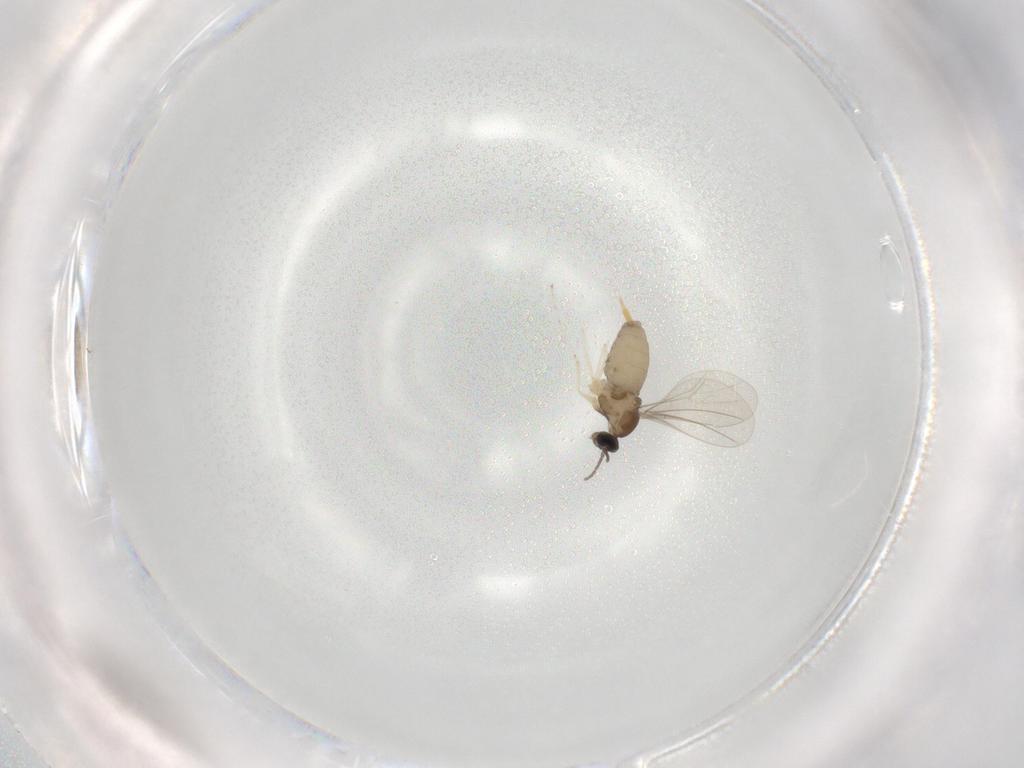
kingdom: Animalia
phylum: Arthropoda
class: Insecta
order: Diptera
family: Cecidomyiidae
